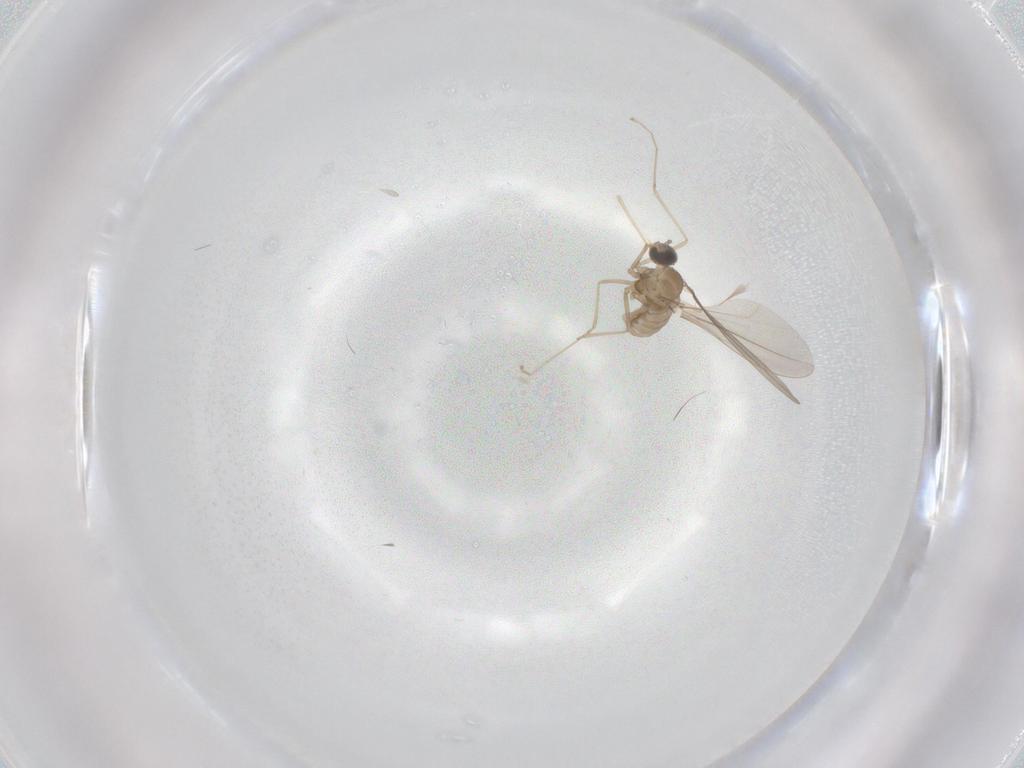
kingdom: Animalia
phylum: Arthropoda
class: Insecta
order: Diptera
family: Cecidomyiidae
